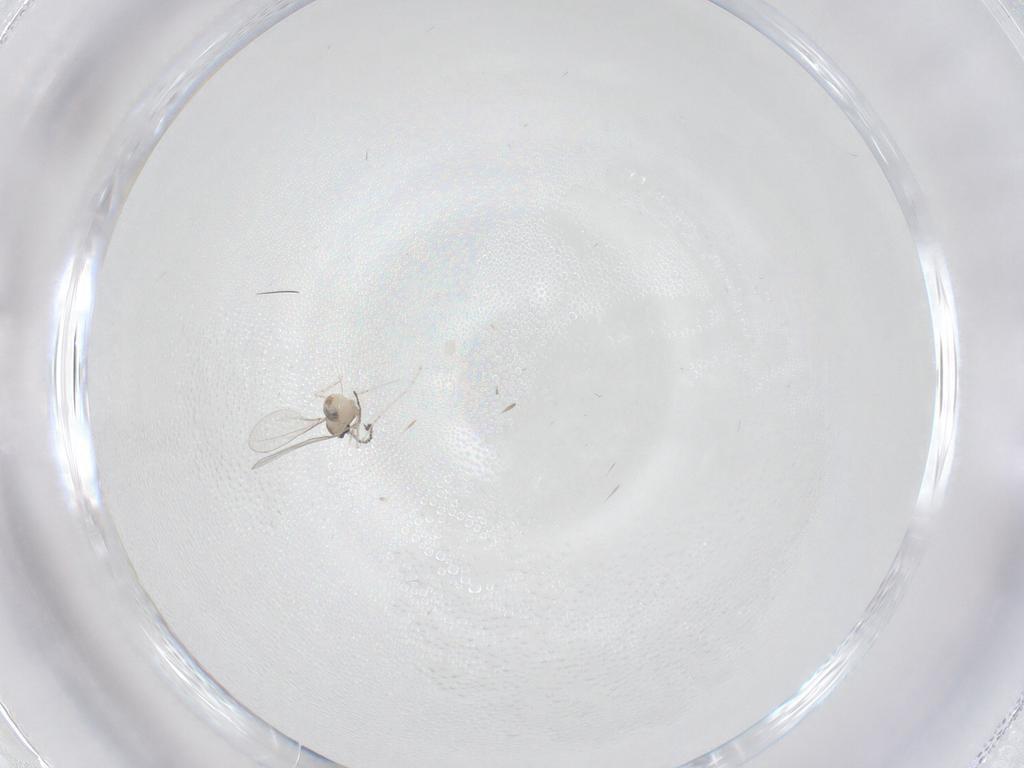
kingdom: Animalia
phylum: Arthropoda
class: Insecta
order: Diptera
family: Cecidomyiidae
